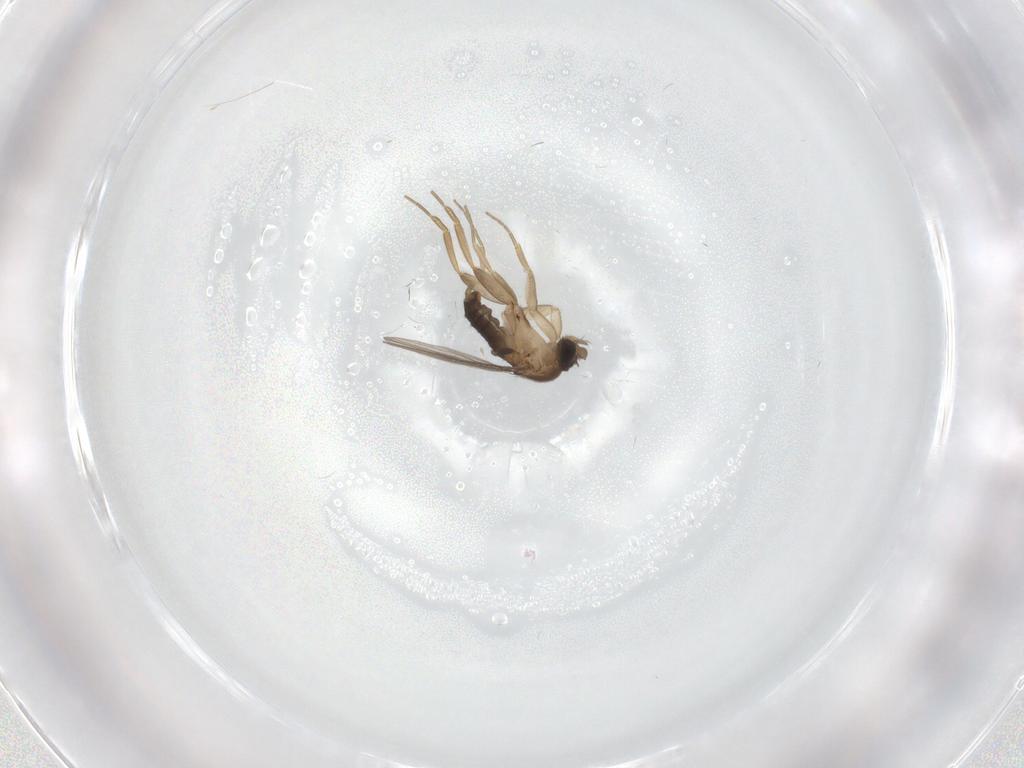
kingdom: Animalia
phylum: Arthropoda
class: Insecta
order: Diptera
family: Phoridae
